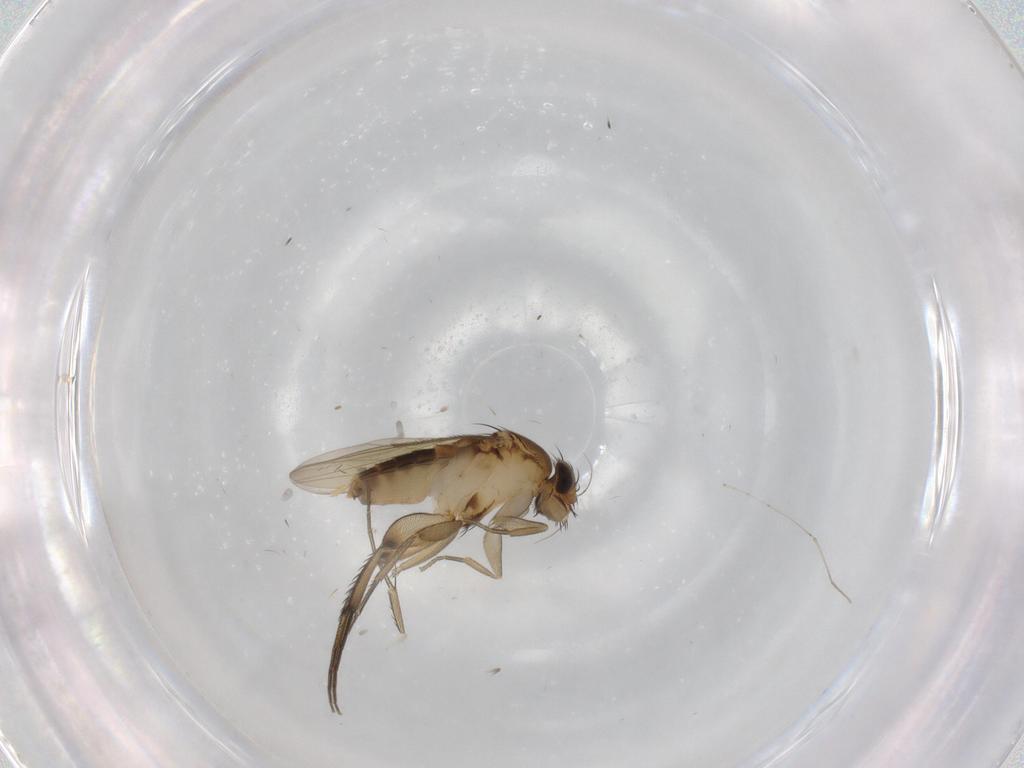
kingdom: Animalia
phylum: Arthropoda
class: Insecta
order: Diptera
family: Phoridae
